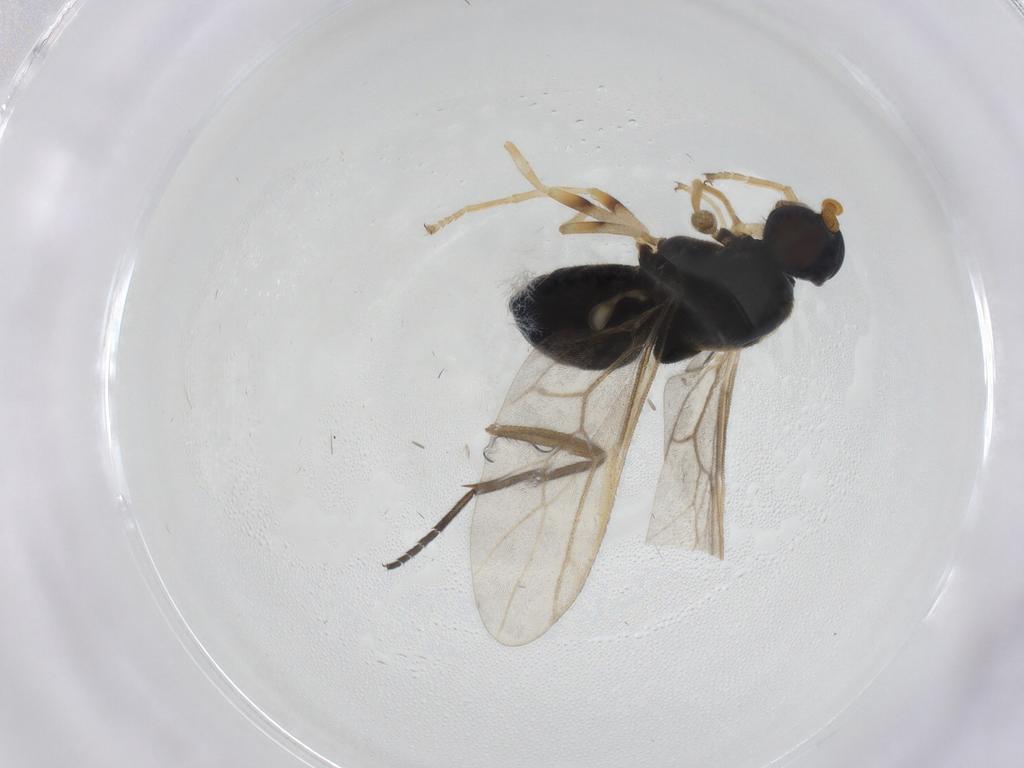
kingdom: Animalia
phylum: Arthropoda
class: Insecta
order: Diptera
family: Stratiomyidae
